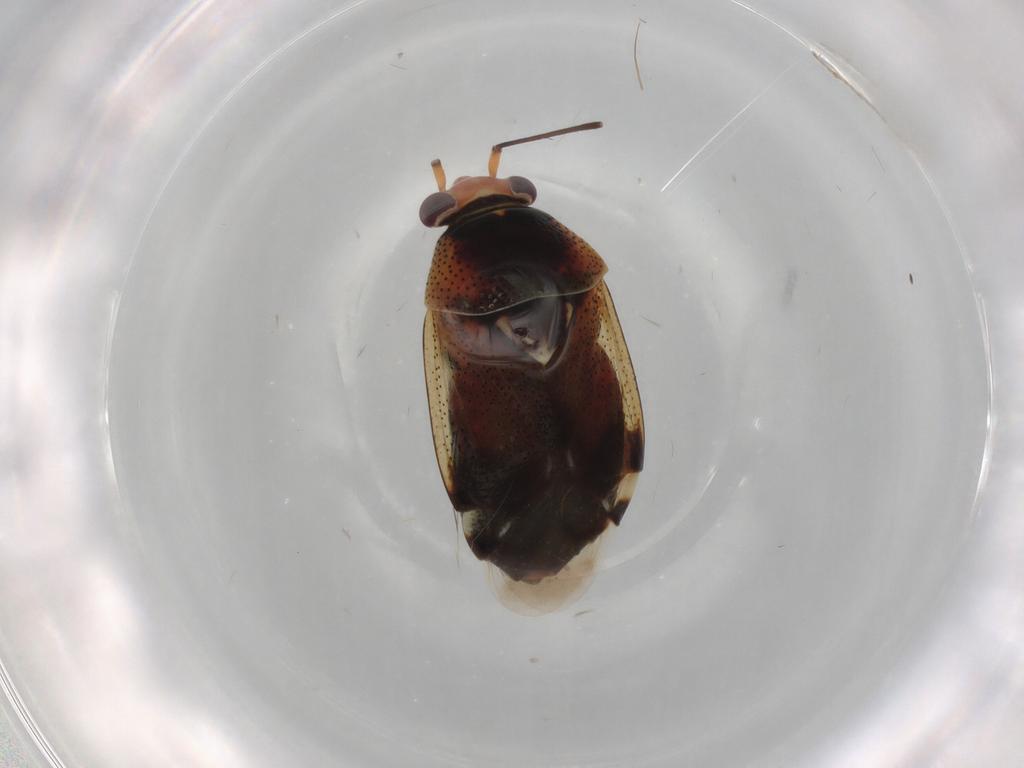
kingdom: Animalia
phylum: Arthropoda
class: Insecta
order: Hemiptera
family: Miridae
